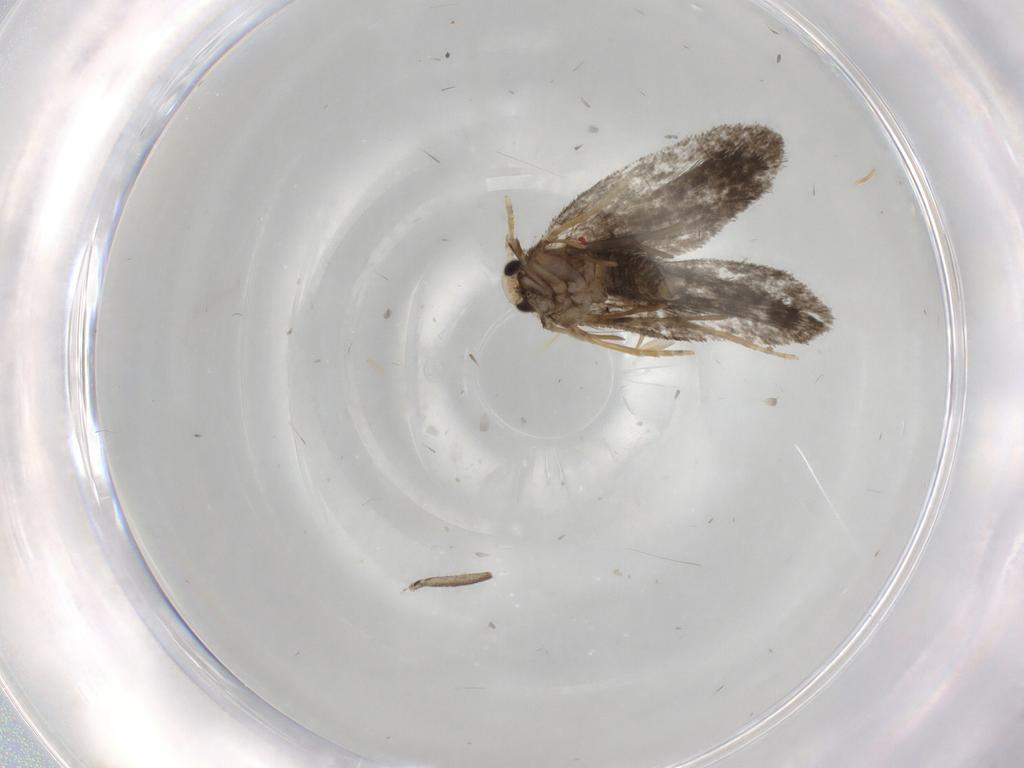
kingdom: Animalia
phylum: Arthropoda
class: Insecta
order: Lepidoptera
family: Psychidae
